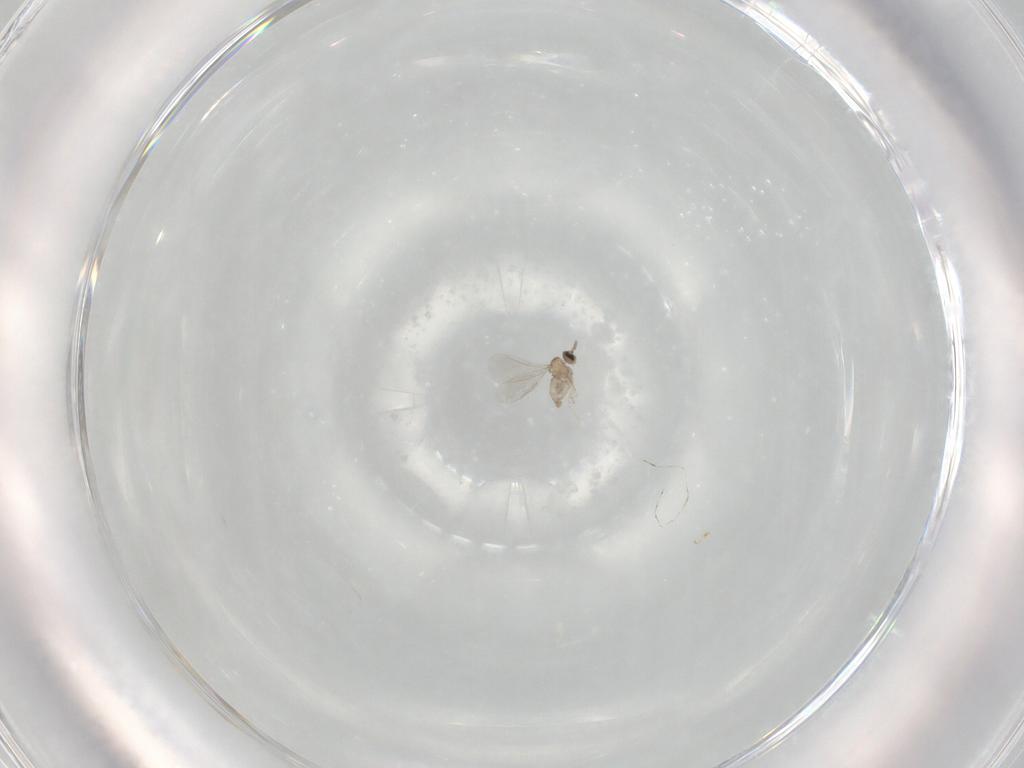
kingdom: Animalia
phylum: Arthropoda
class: Insecta
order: Diptera
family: Cecidomyiidae
